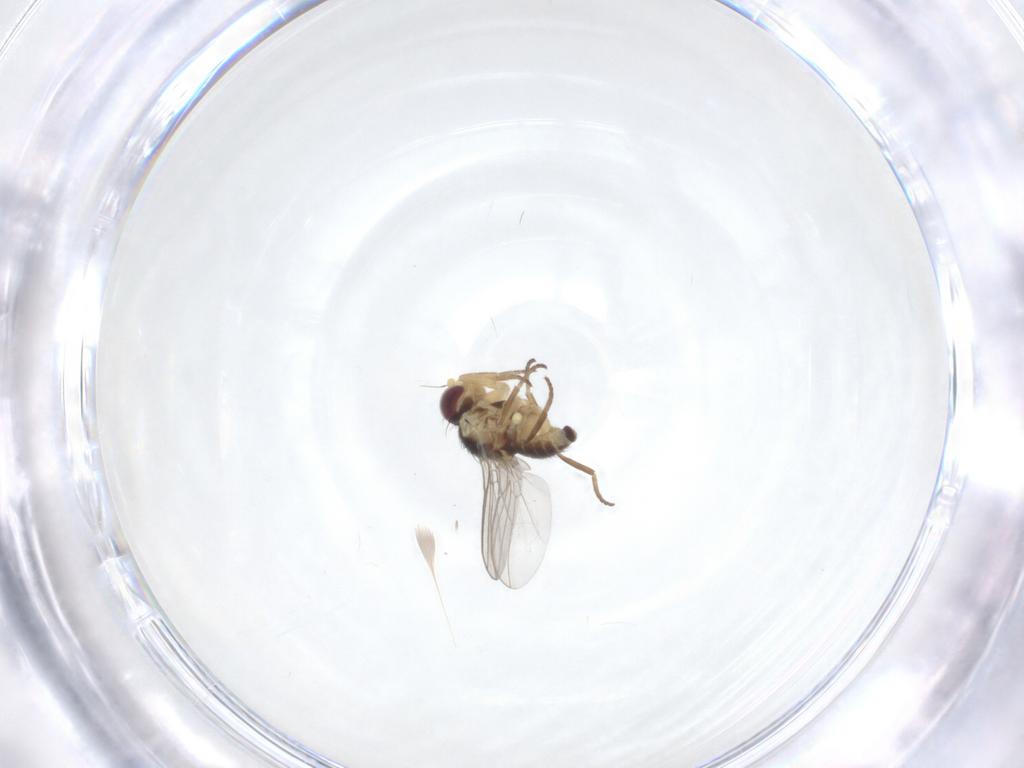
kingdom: Animalia
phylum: Arthropoda
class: Insecta
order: Diptera
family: Agromyzidae
